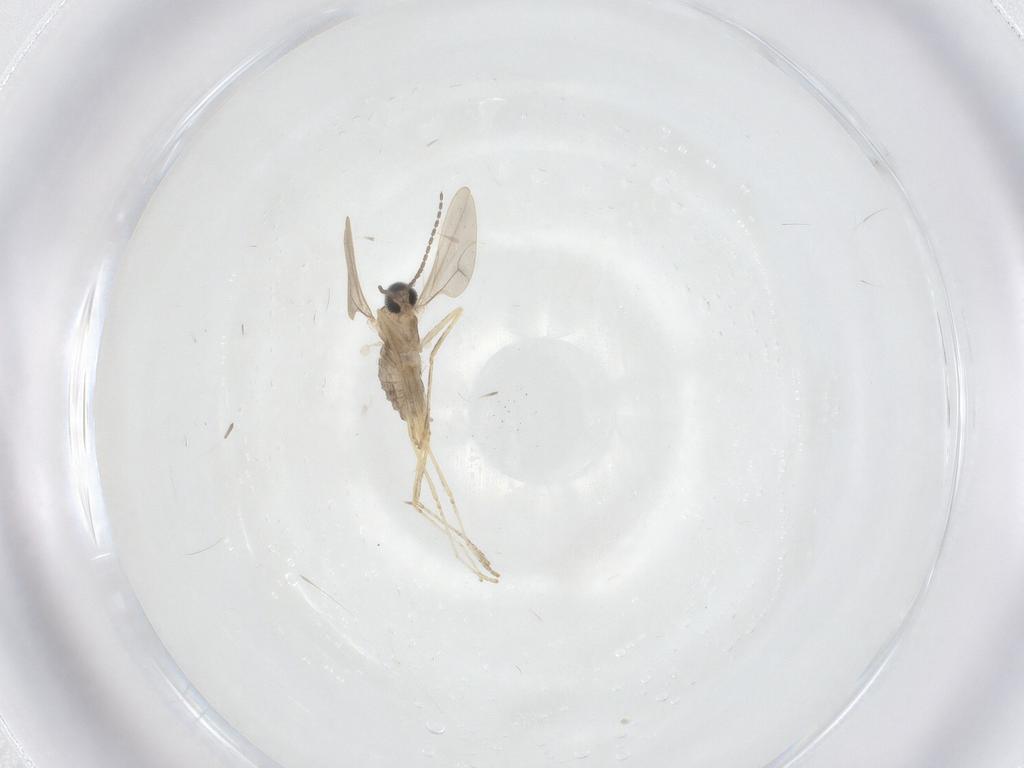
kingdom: Animalia
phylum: Arthropoda
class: Insecta
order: Diptera
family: Cecidomyiidae
